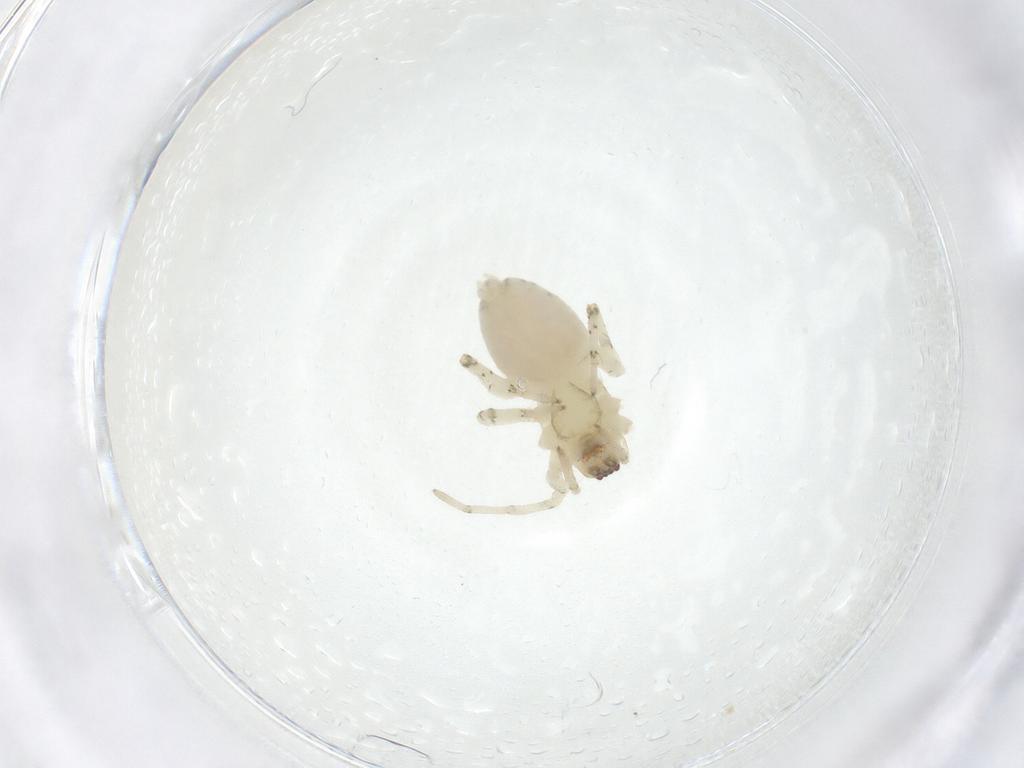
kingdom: Animalia
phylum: Arthropoda
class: Arachnida
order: Araneae
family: Anyphaenidae
